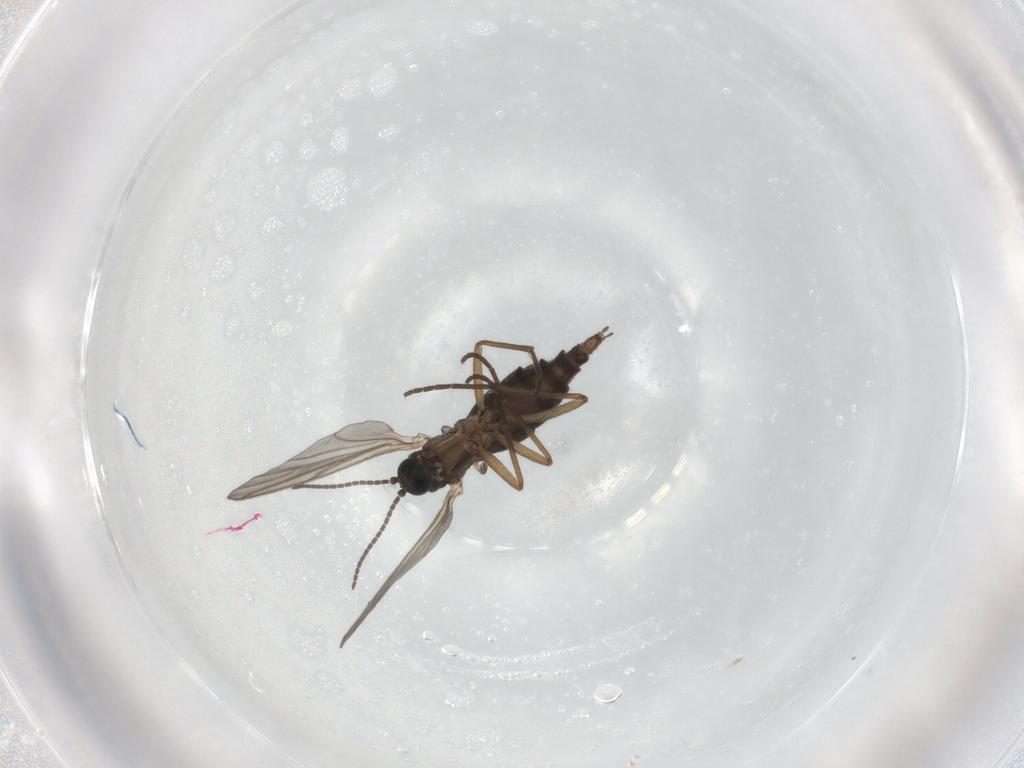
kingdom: Animalia
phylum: Arthropoda
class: Insecta
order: Diptera
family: Sciaridae
